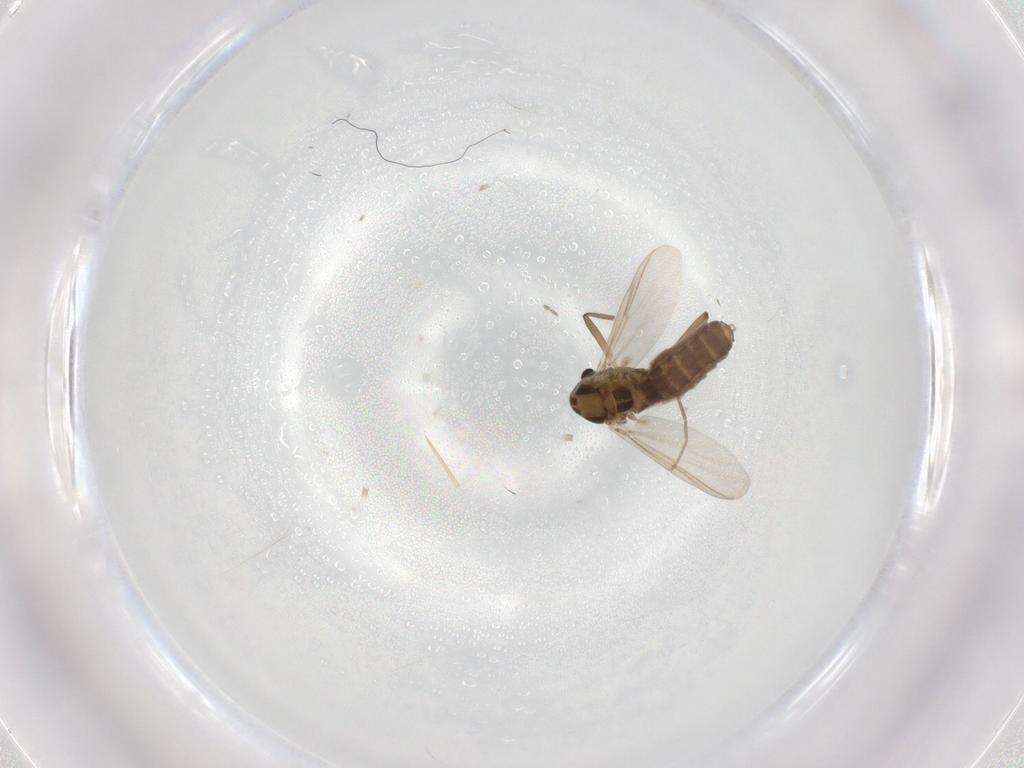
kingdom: Animalia
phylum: Arthropoda
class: Insecta
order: Diptera
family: Chironomidae
